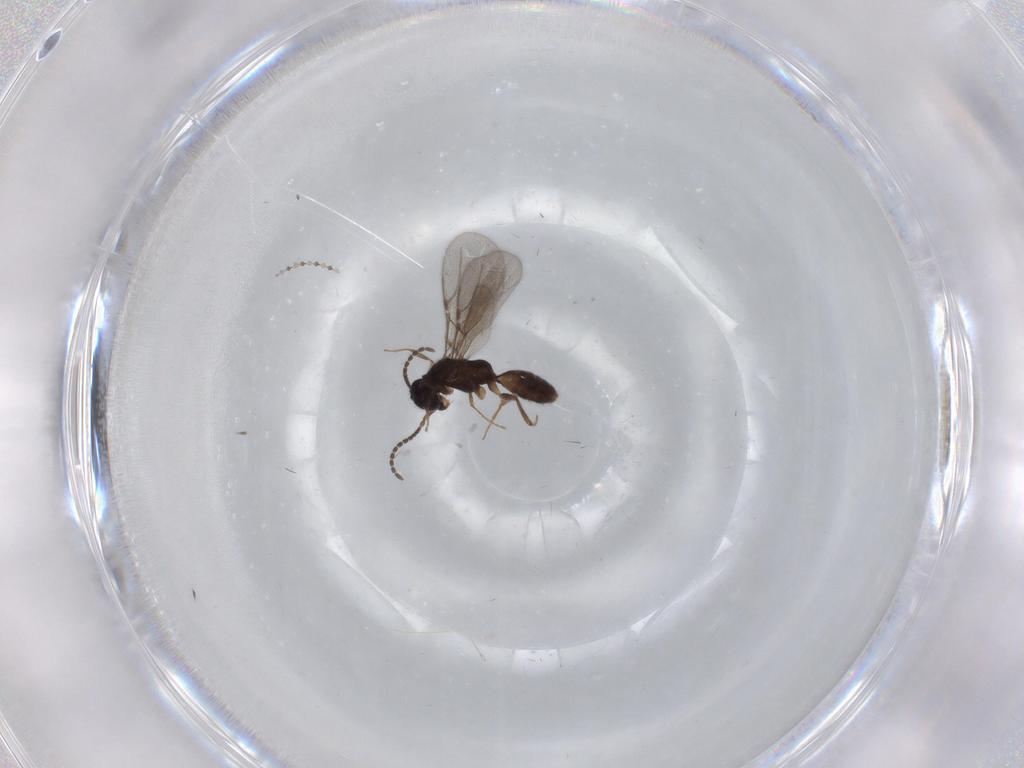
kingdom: Animalia
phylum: Arthropoda
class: Insecta
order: Hymenoptera
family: Bethylidae
